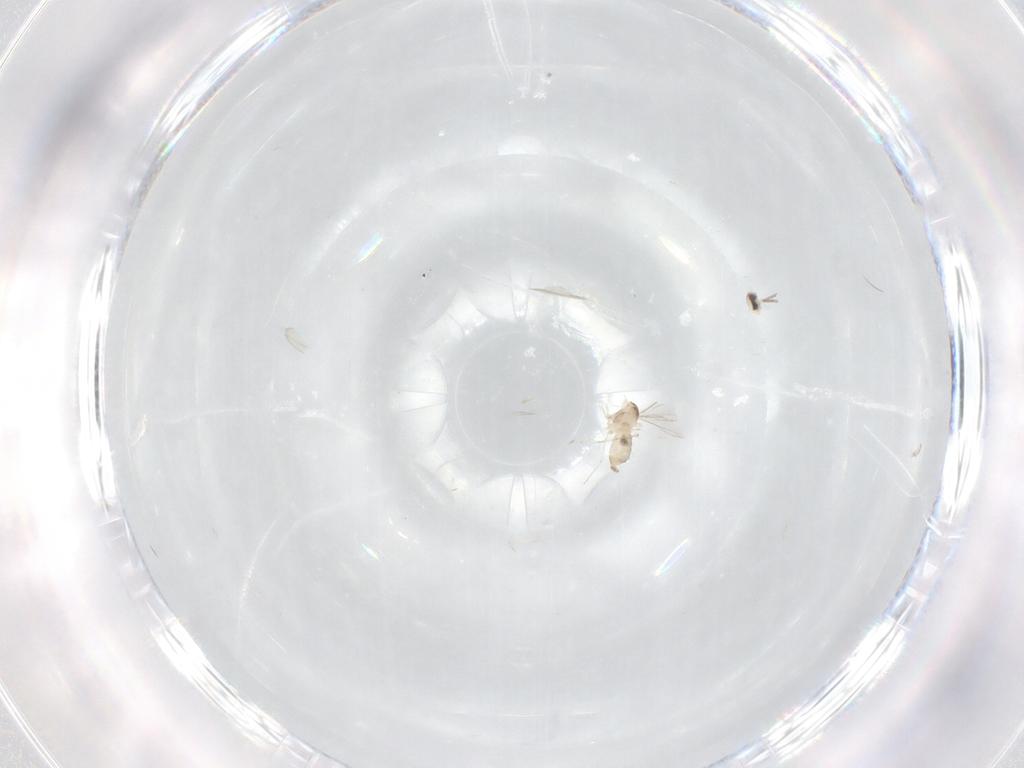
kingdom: Animalia
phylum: Arthropoda
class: Insecta
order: Diptera
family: Cecidomyiidae
